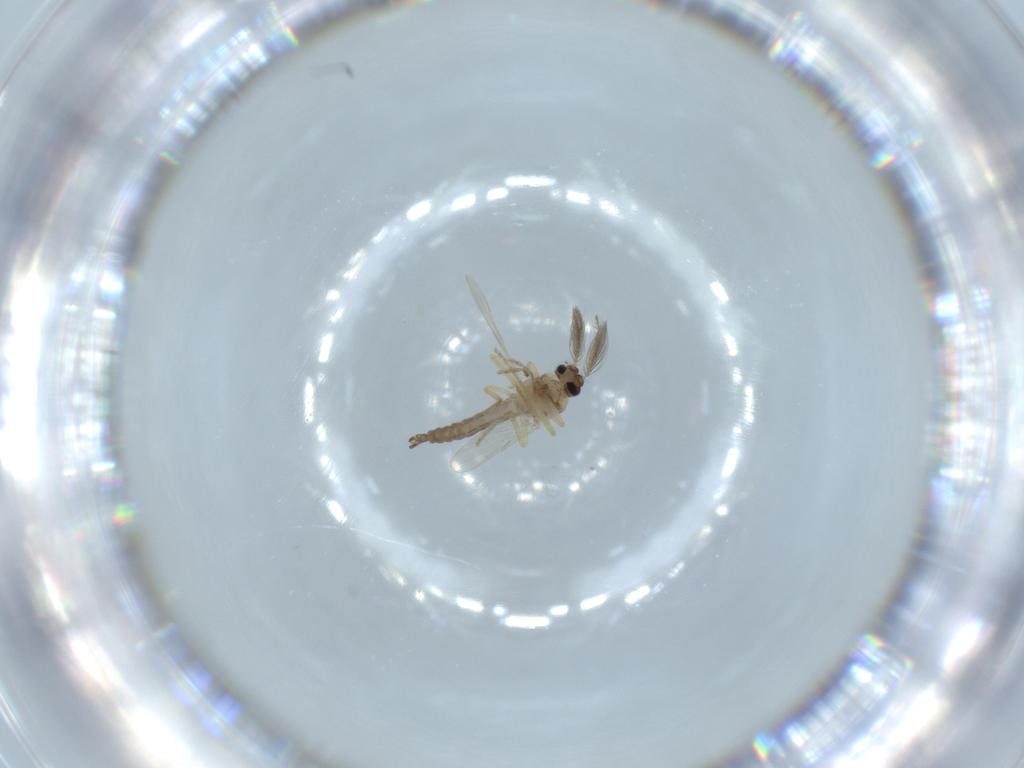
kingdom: Animalia
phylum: Arthropoda
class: Insecta
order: Diptera
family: Ceratopogonidae
